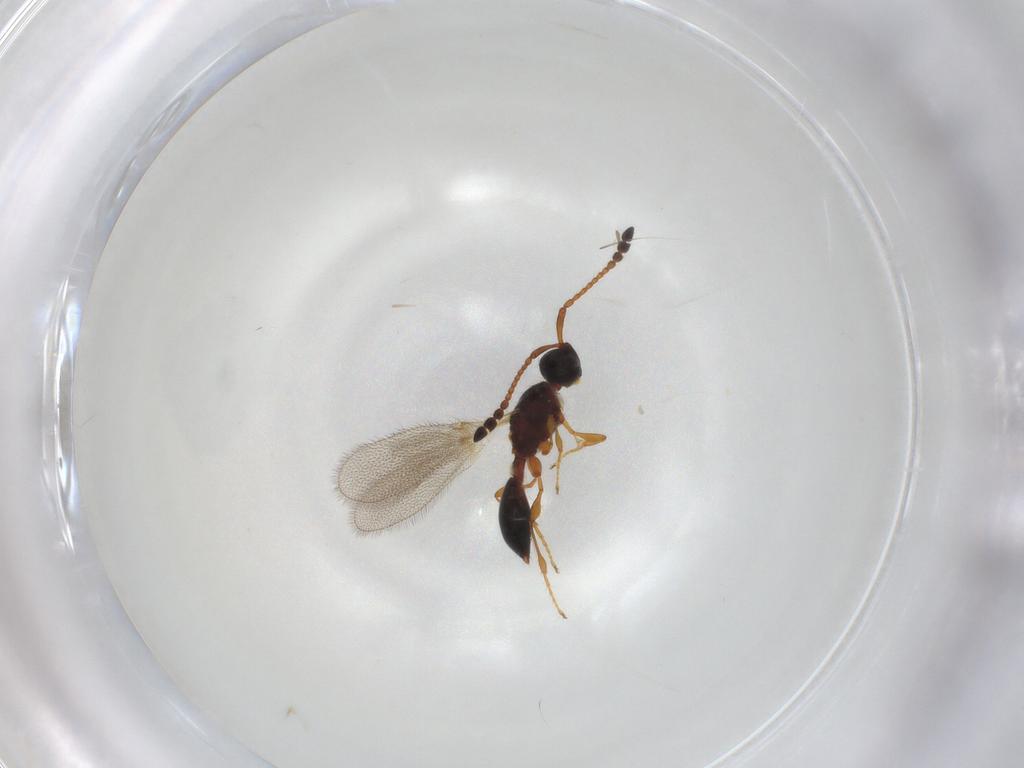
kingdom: Animalia
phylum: Arthropoda
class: Insecta
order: Hymenoptera
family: Diapriidae
